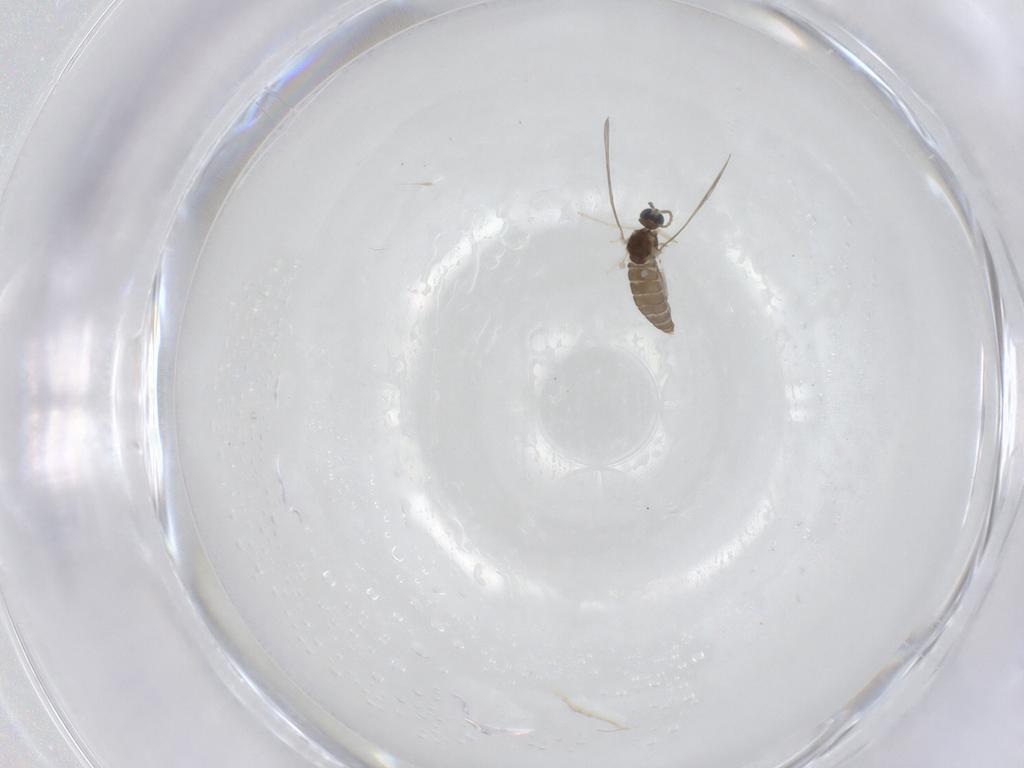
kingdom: Animalia
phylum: Arthropoda
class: Insecta
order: Diptera
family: Cecidomyiidae
